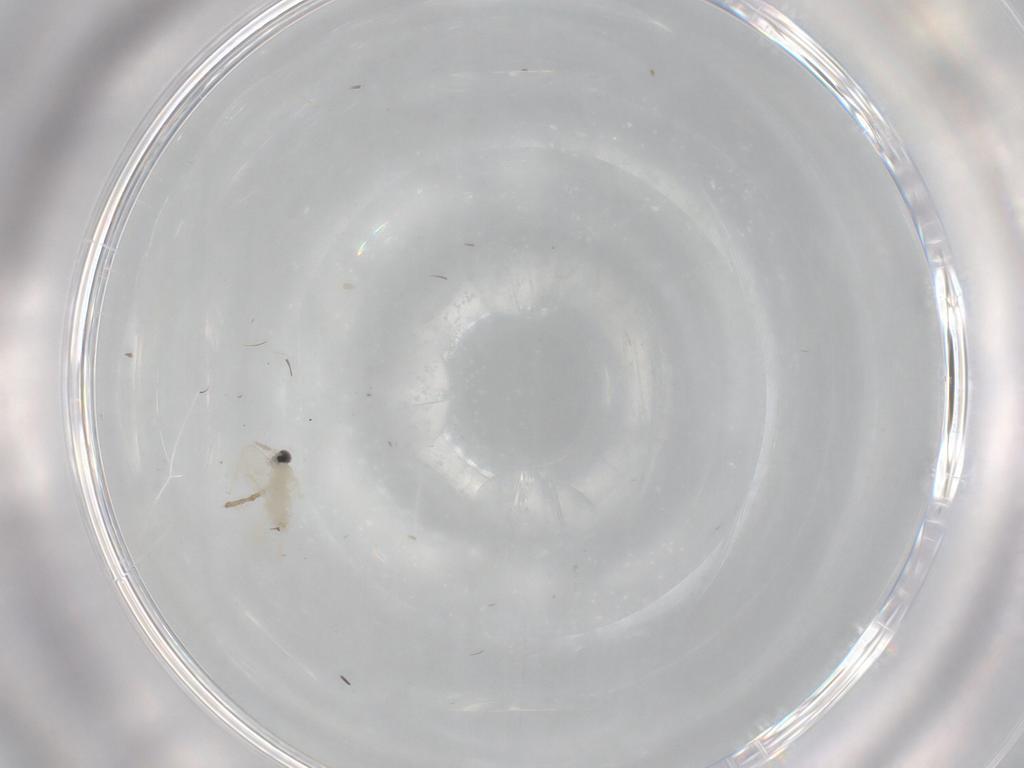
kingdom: Animalia
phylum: Arthropoda
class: Insecta
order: Diptera
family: Cecidomyiidae
